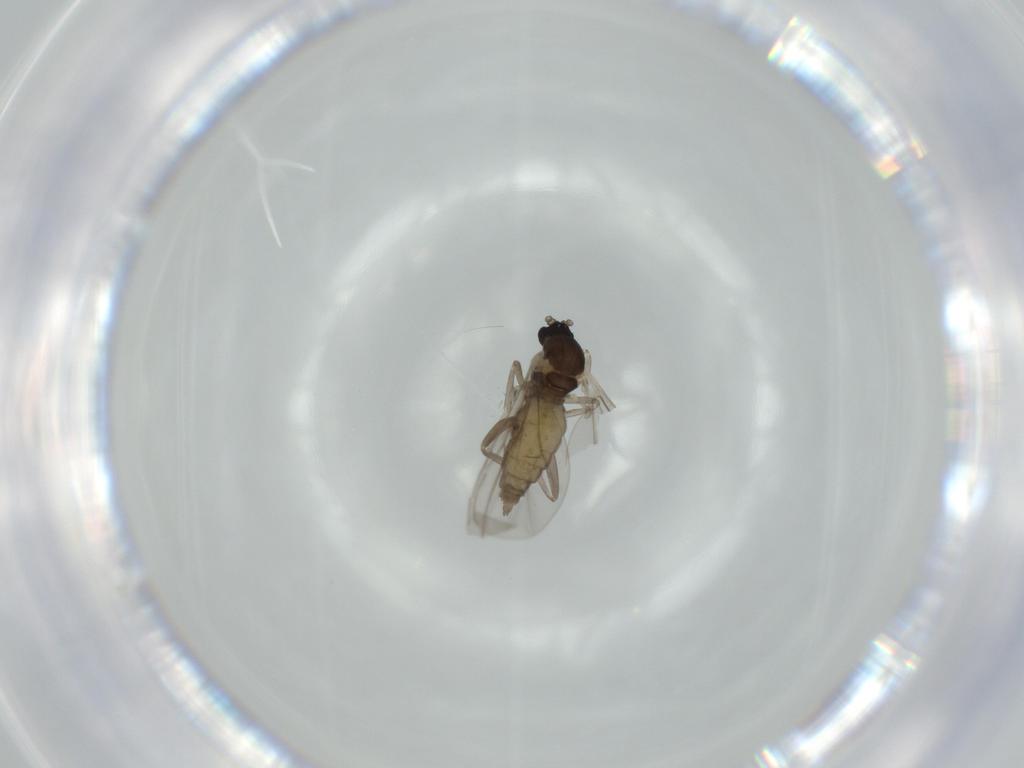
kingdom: Animalia
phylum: Arthropoda
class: Insecta
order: Diptera
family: Cecidomyiidae
